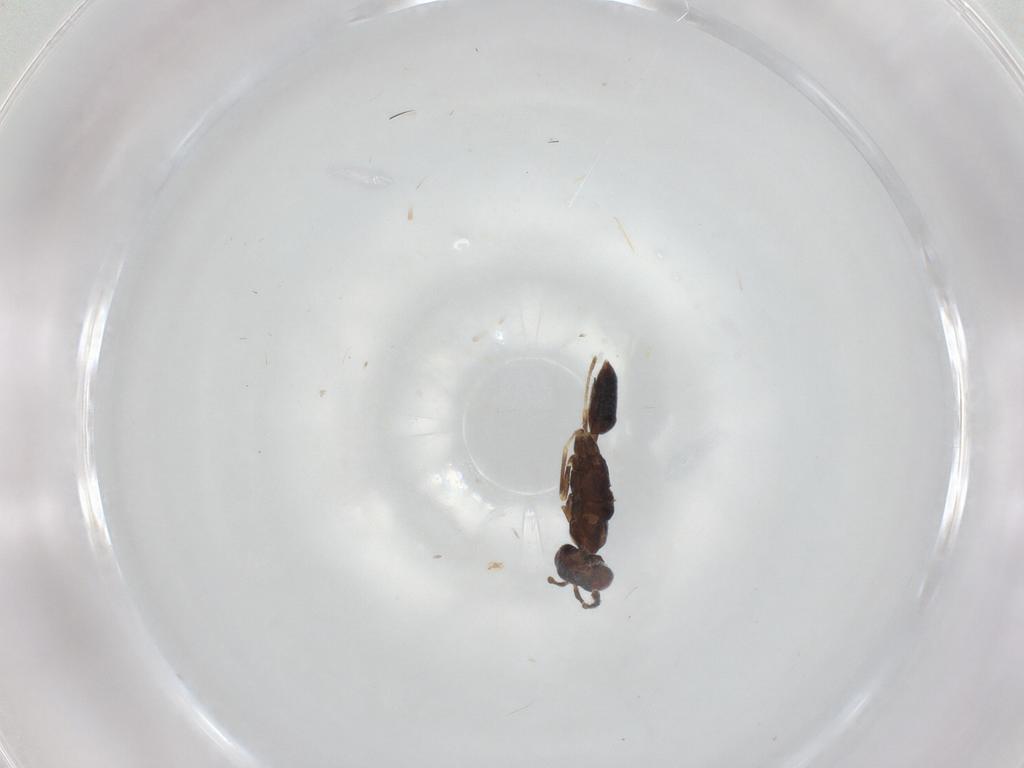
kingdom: Animalia
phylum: Arthropoda
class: Insecta
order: Hymenoptera
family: Eurytomidae
